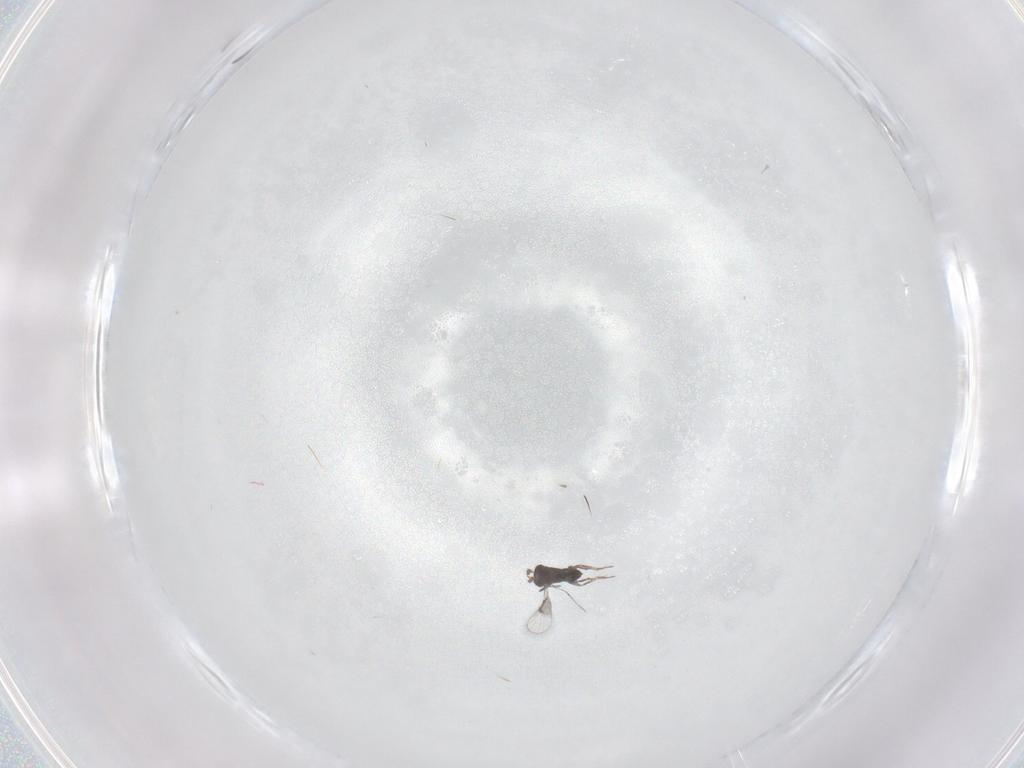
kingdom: Animalia
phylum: Arthropoda
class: Insecta
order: Hymenoptera
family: Trichogrammatidae
